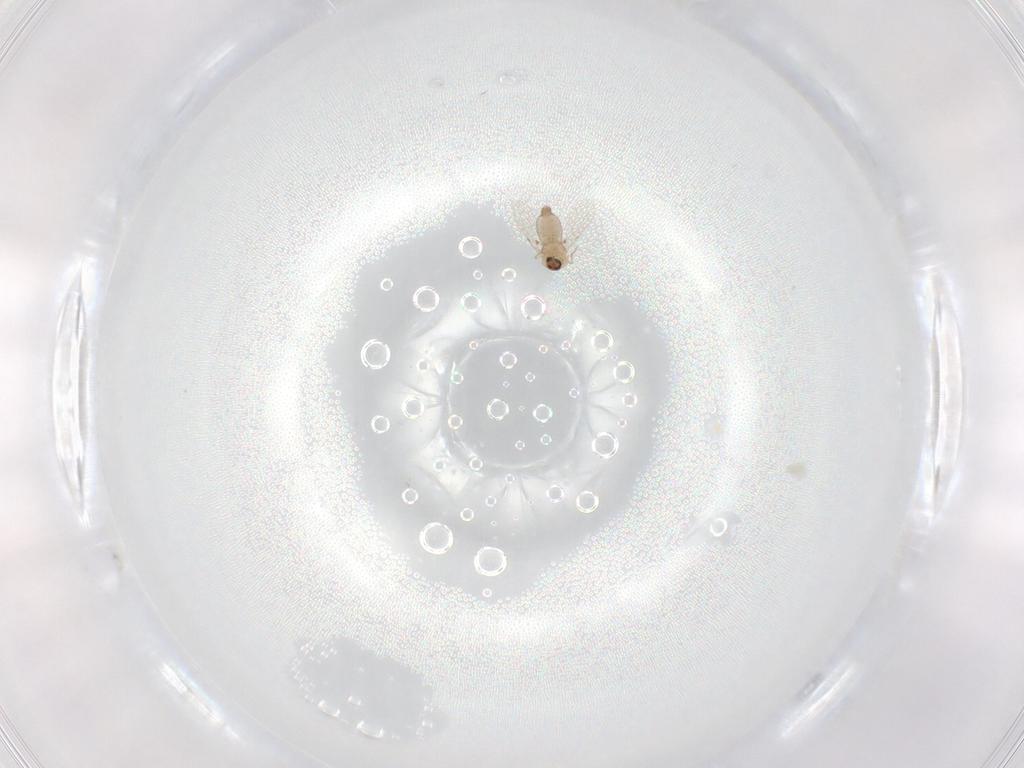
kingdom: Animalia
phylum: Arthropoda
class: Insecta
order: Diptera
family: Ceratopogonidae
